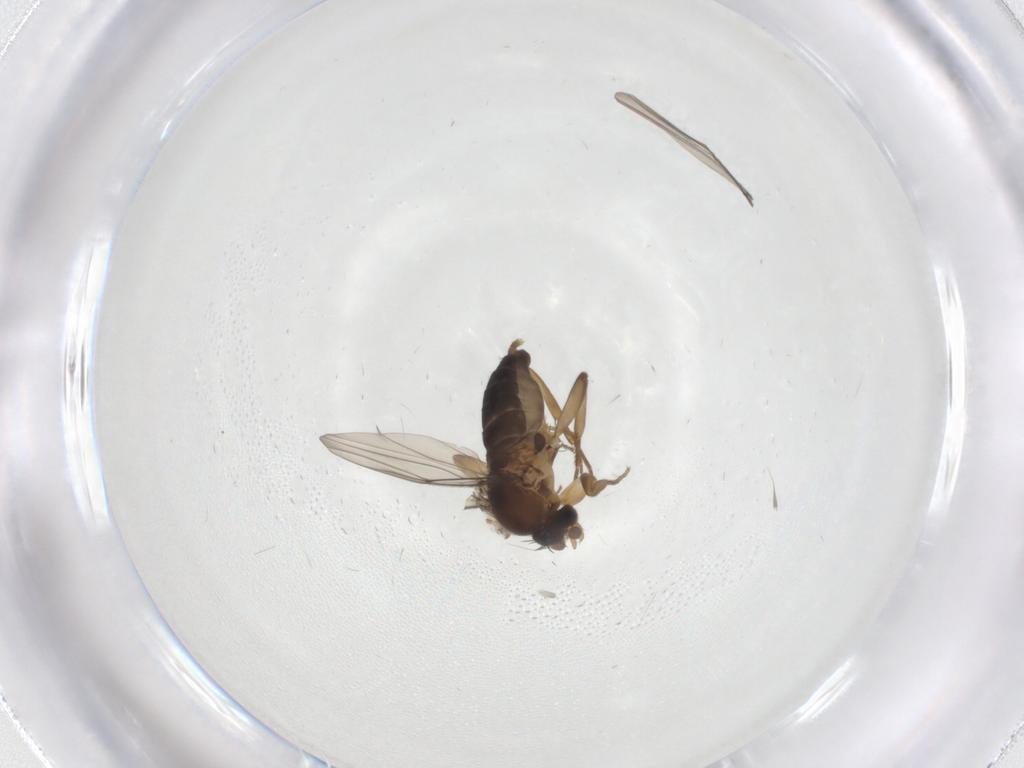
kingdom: Animalia
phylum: Arthropoda
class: Insecta
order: Diptera
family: Phoridae
